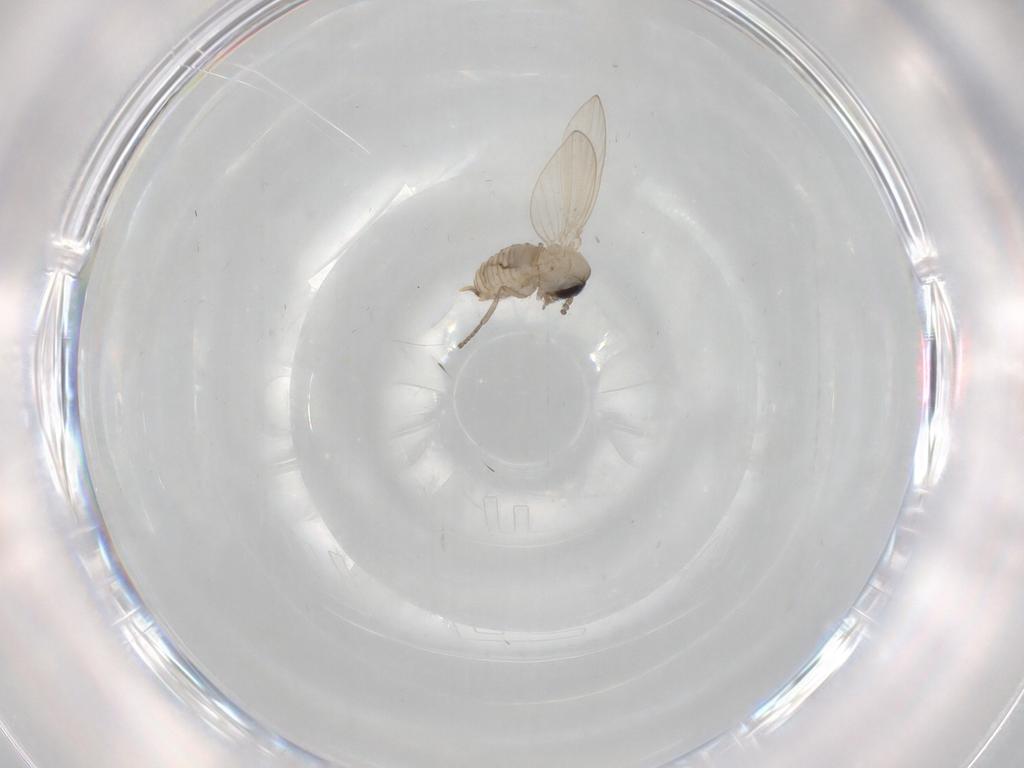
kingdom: Animalia
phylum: Arthropoda
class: Insecta
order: Diptera
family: Psychodidae
